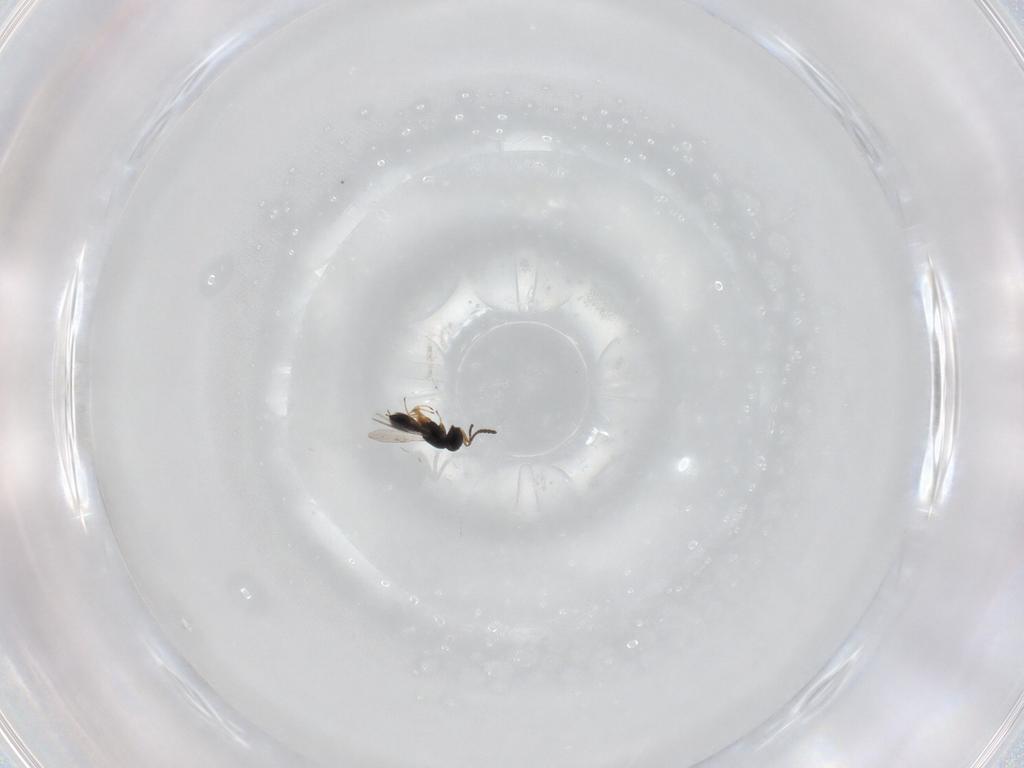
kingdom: Animalia
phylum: Arthropoda
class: Insecta
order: Hymenoptera
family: Scelionidae
